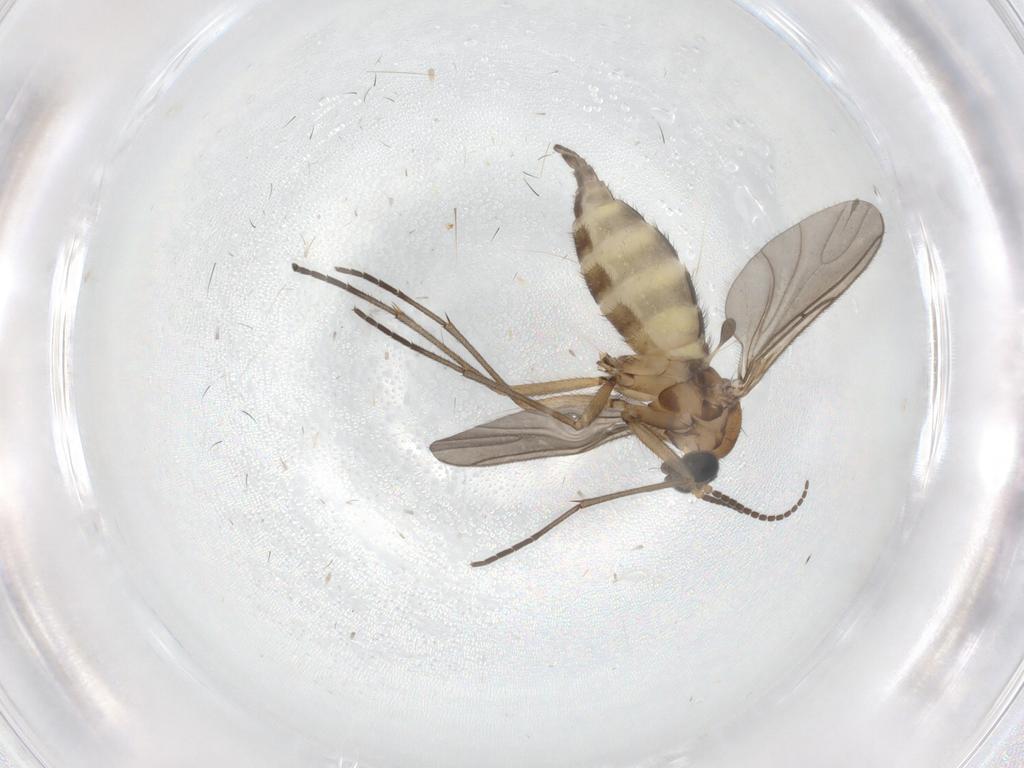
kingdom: Animalia
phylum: Arthropoda
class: Insecta
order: Diptera
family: Sciaridae
